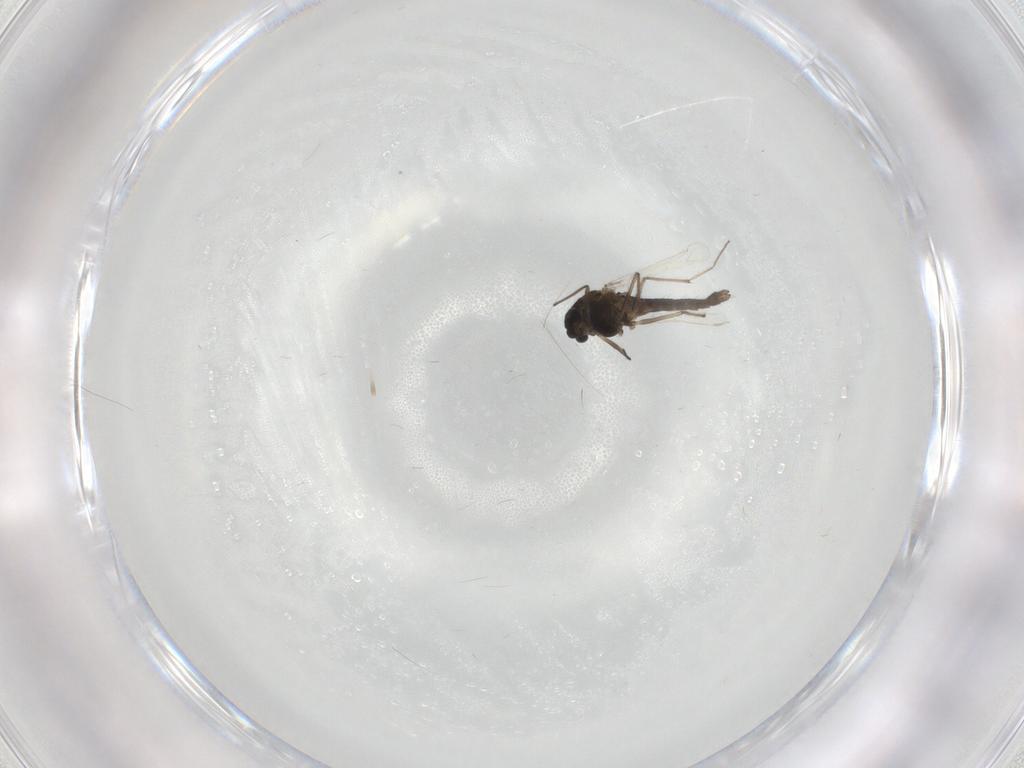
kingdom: Animalia
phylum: Arthropoda
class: Insecta
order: Diptera
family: Chironomidae
